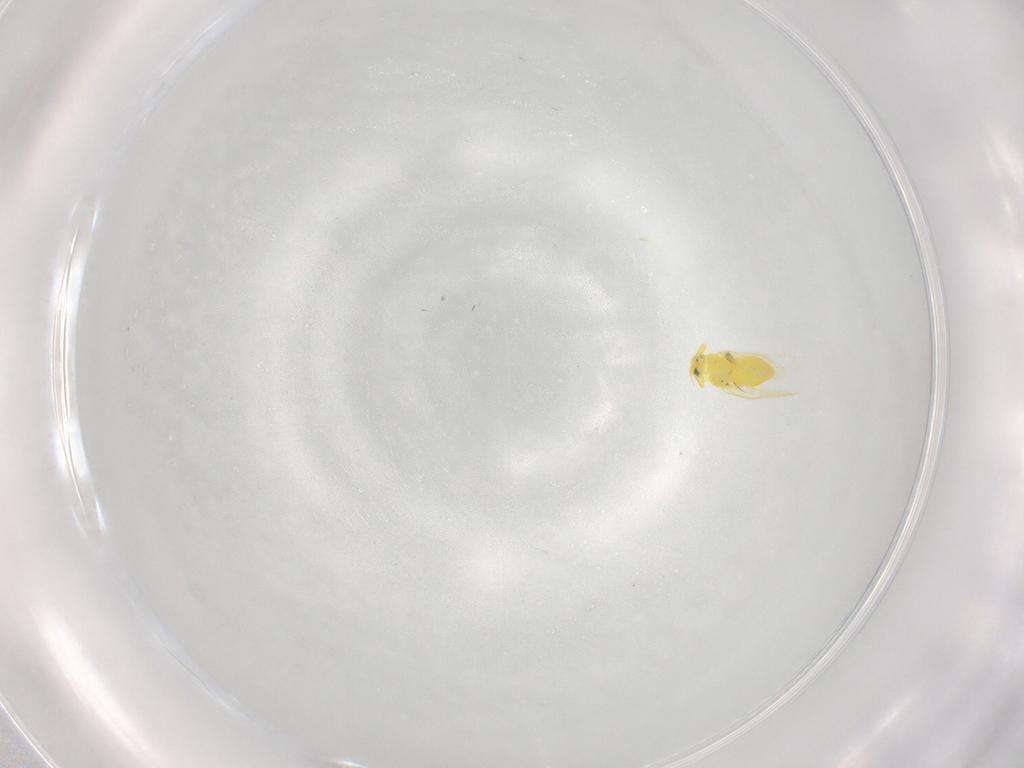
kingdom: Animalia
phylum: Arthropoda
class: Insecta
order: Hemiptera
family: Aleyrodidae
